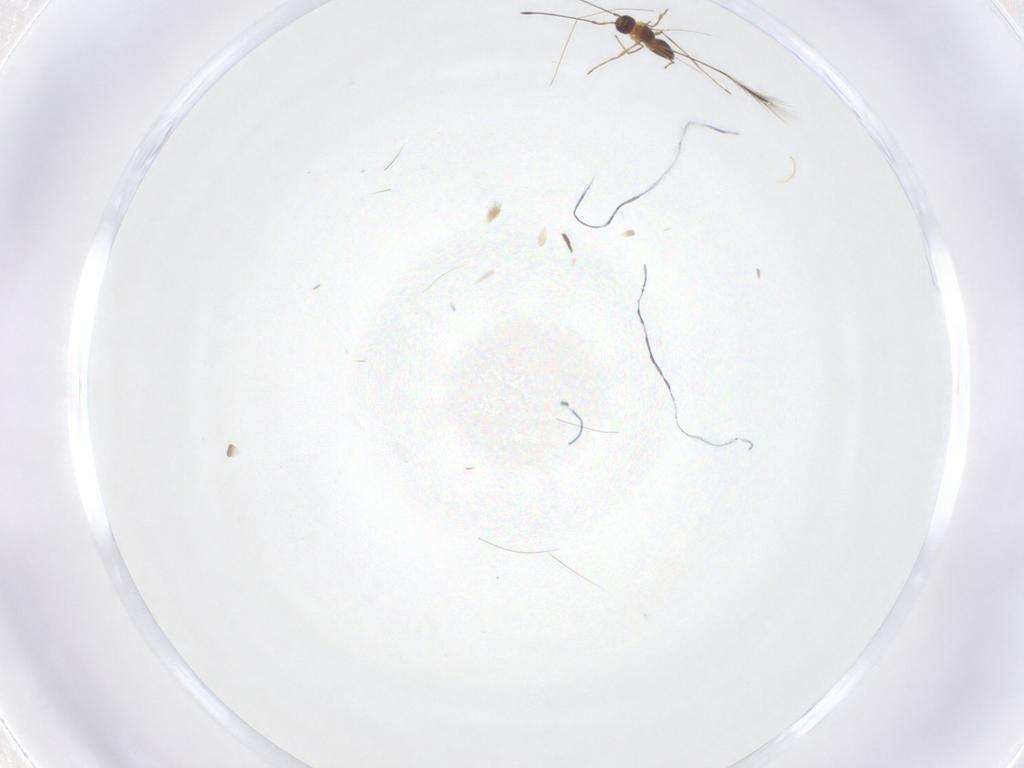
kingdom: Animalia
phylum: Arthropoda
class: Insecta
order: Hymenoptera
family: Mymaridae
